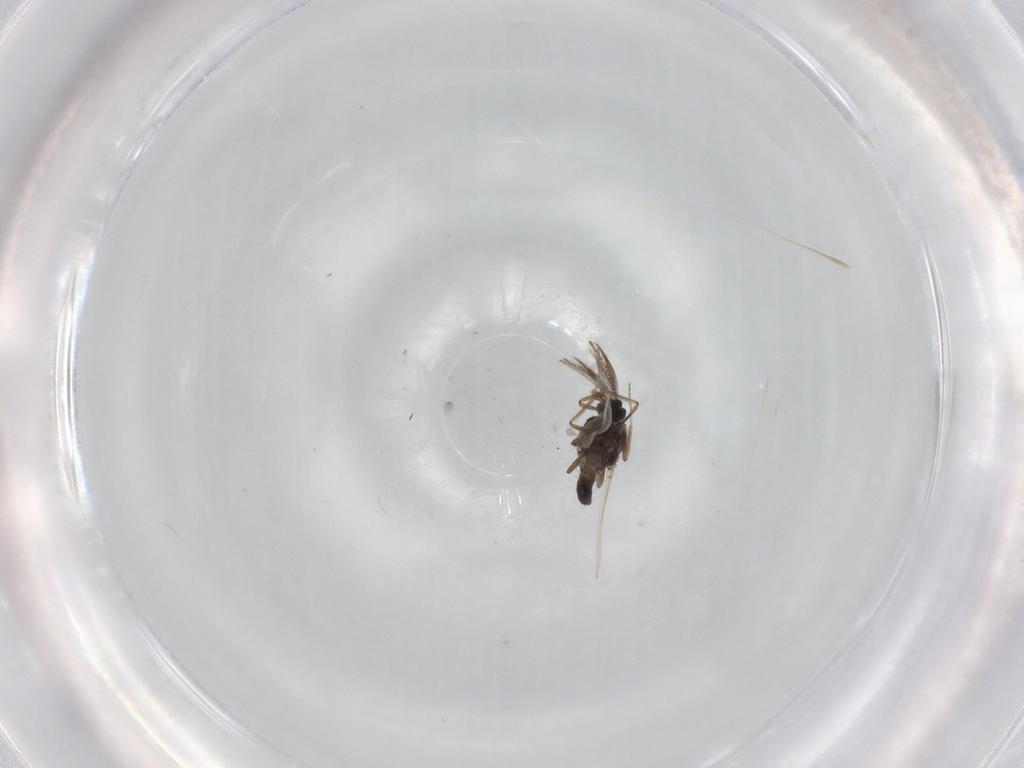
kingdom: Animalia
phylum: Arthropoda
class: Insecta
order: Diptera
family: Ceratopogonidae
